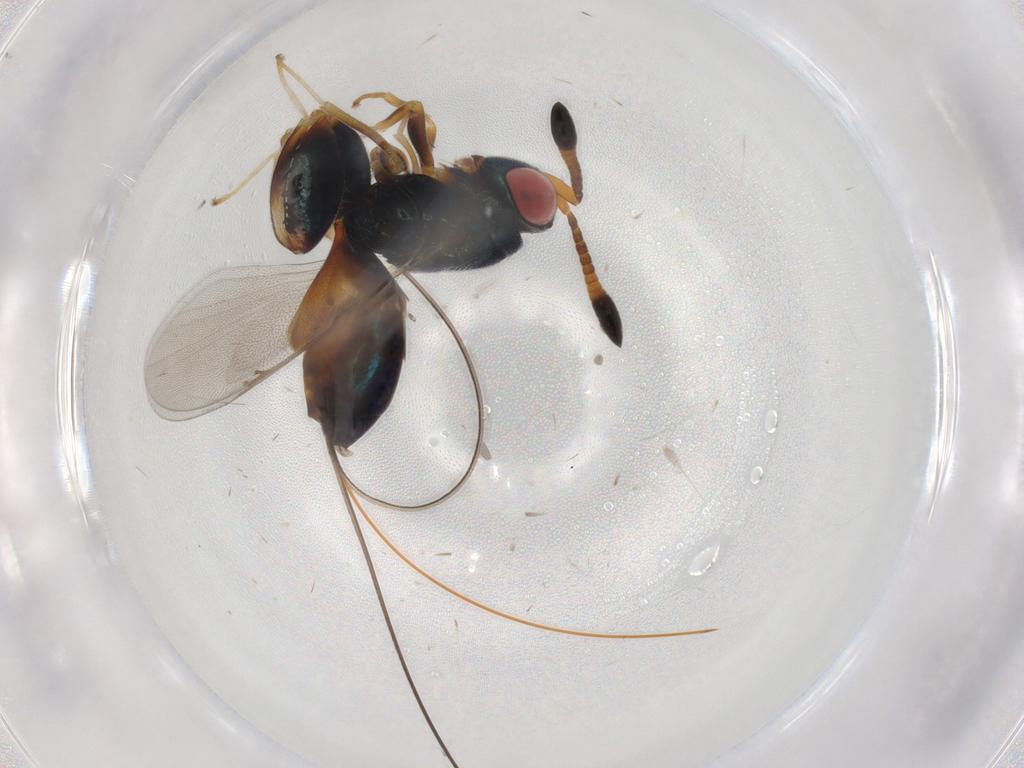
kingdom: Animalia
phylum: Arthropoda
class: Insecta
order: Hymenoptera
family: Torymidae
